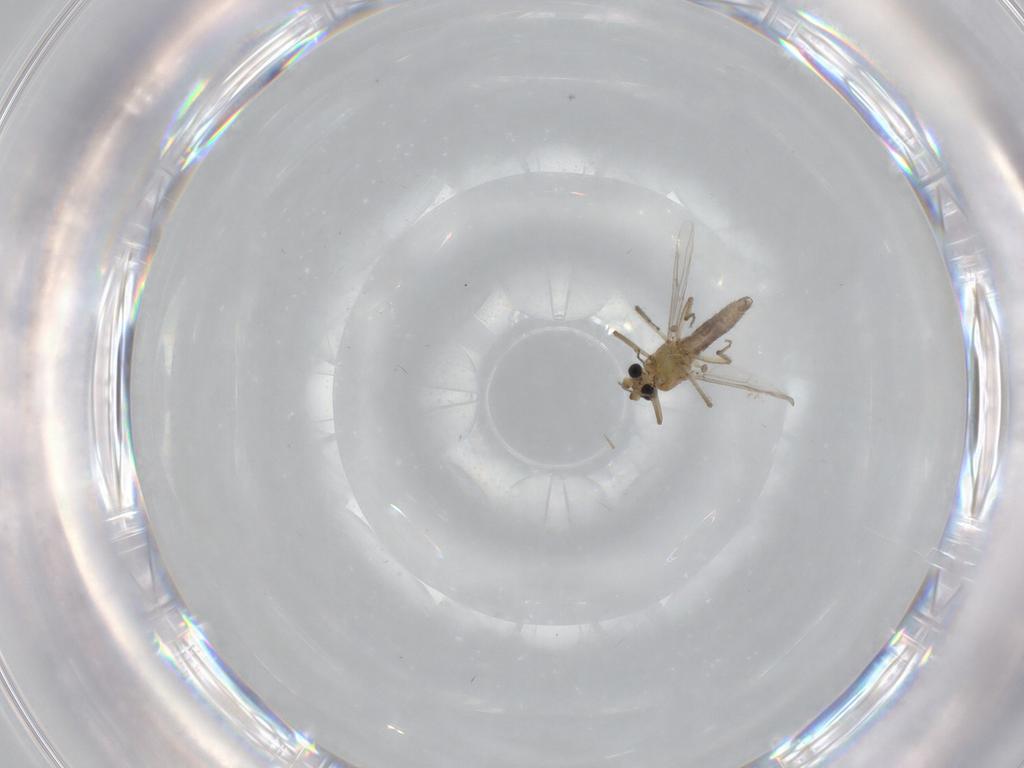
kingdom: Animalia
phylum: Arthropoda
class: Insecta
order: Diptera
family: Ceratopogonidae
